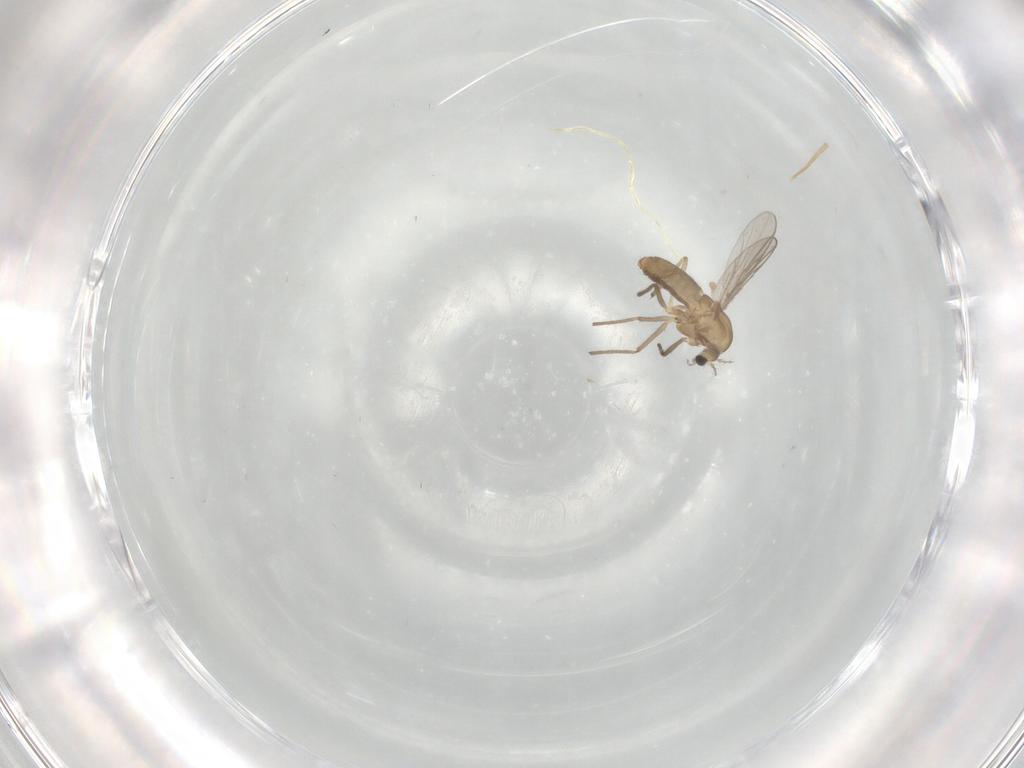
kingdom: Animalia
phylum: Arthropoda
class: Insecta
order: Diptera
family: Chironomidae
